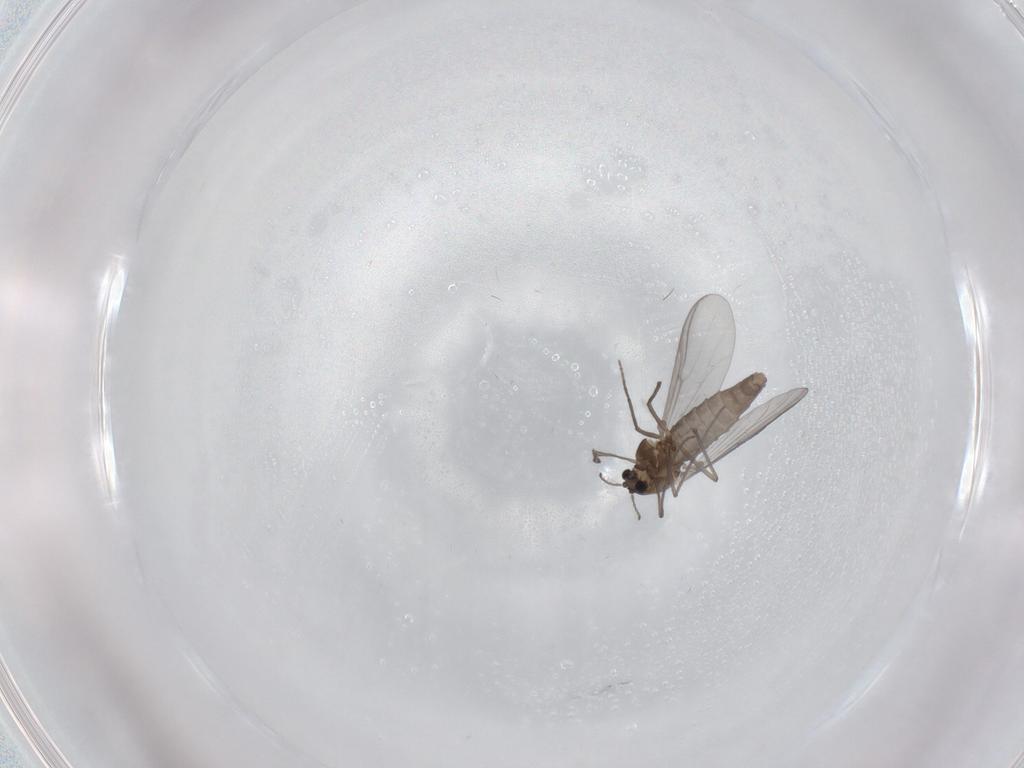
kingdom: Animalia
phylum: Arthropoda
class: Insecta
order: Diptera
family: Chironomidae
